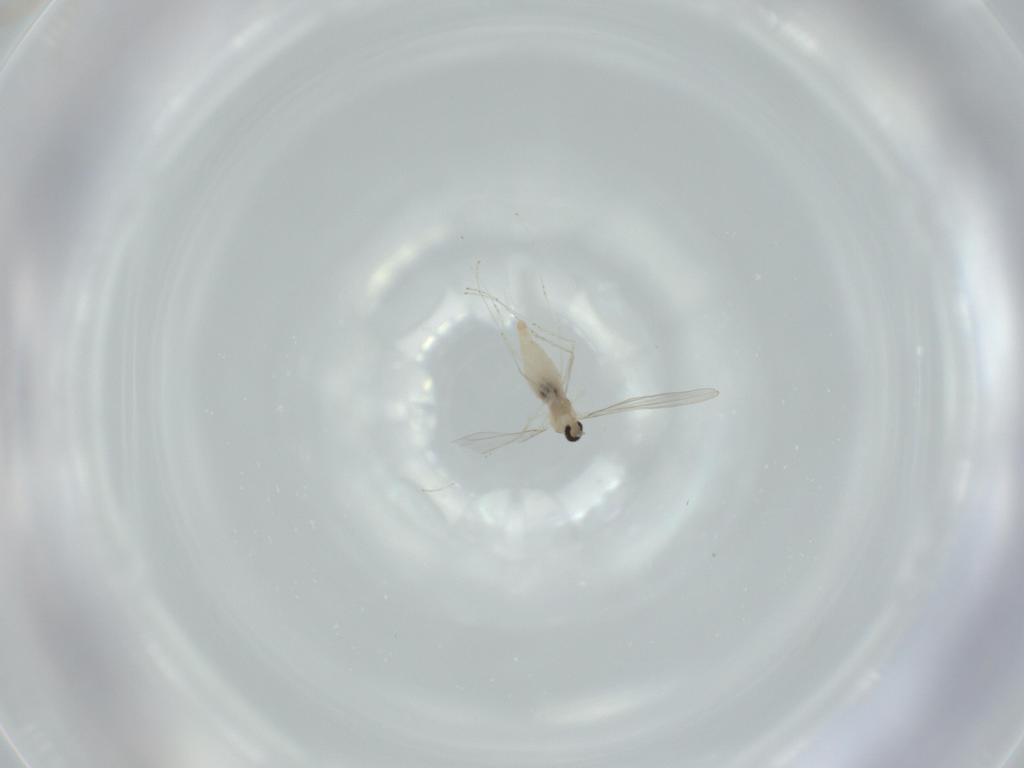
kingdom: Animalia
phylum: Arthropoda
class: Insecta
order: Diptera
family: Cecidomyiidae
